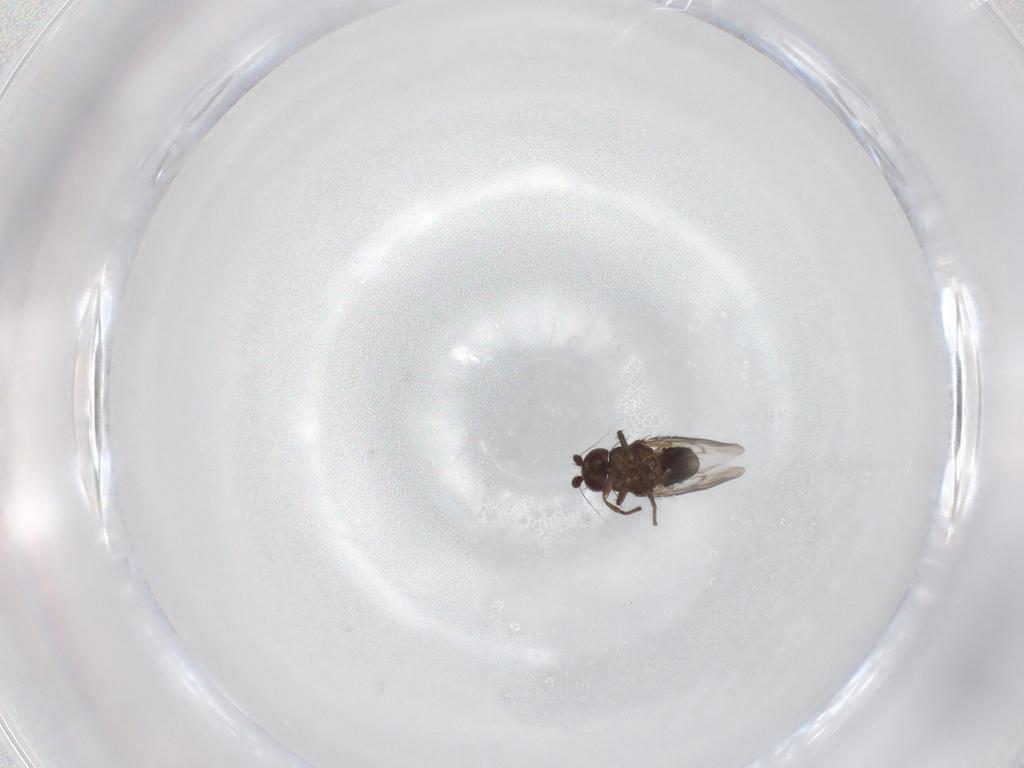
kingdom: Animalia
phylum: Arthropoda
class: Insecta
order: Diptera
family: Sphaeroceridae
